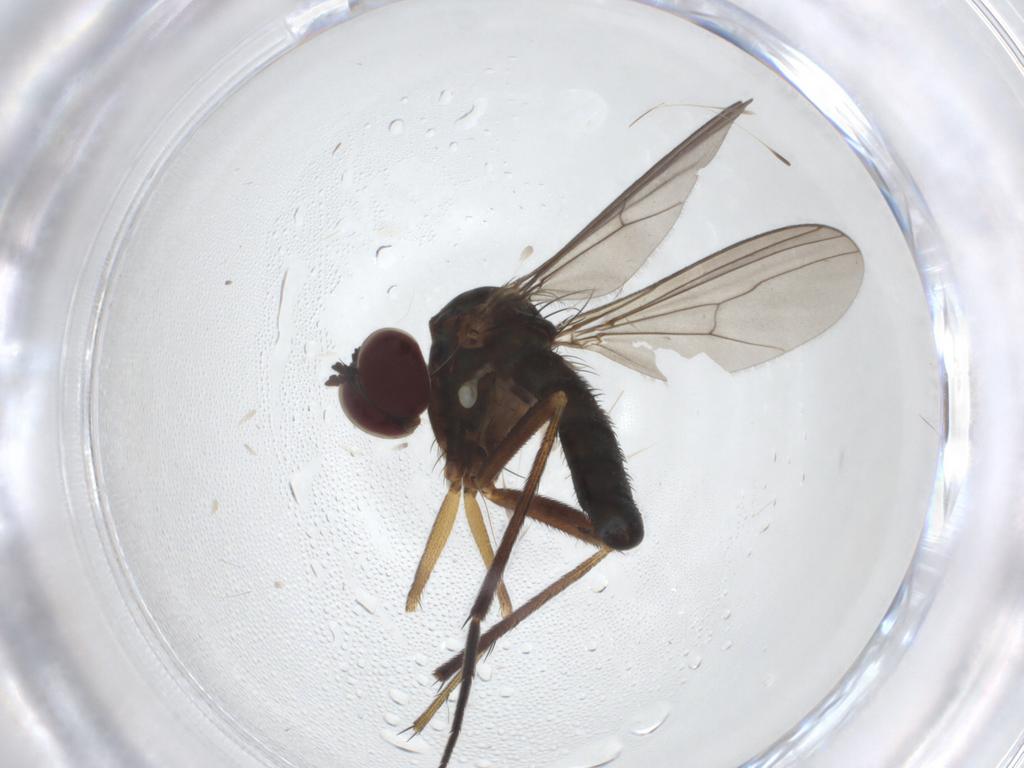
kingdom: Animalia
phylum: Arthropoda
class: Insecta
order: Diptera
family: Dolichopodidae
